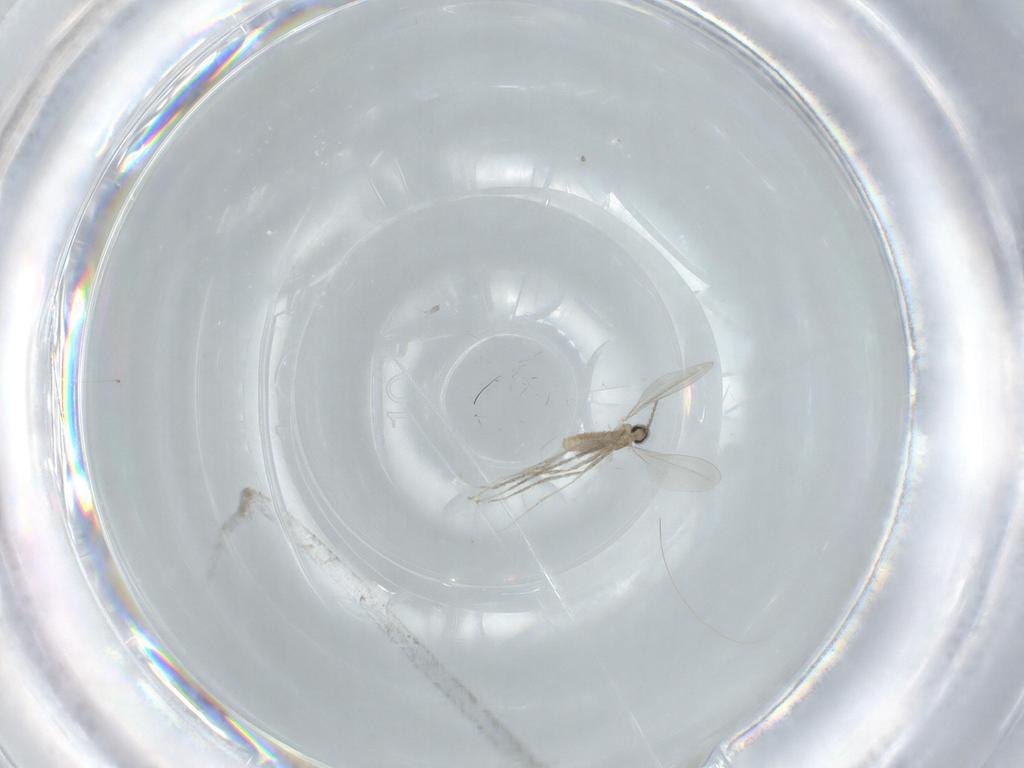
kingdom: Animalia
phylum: Arthropoda
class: Insecta
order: Diptera
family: Cecidomyiidae
